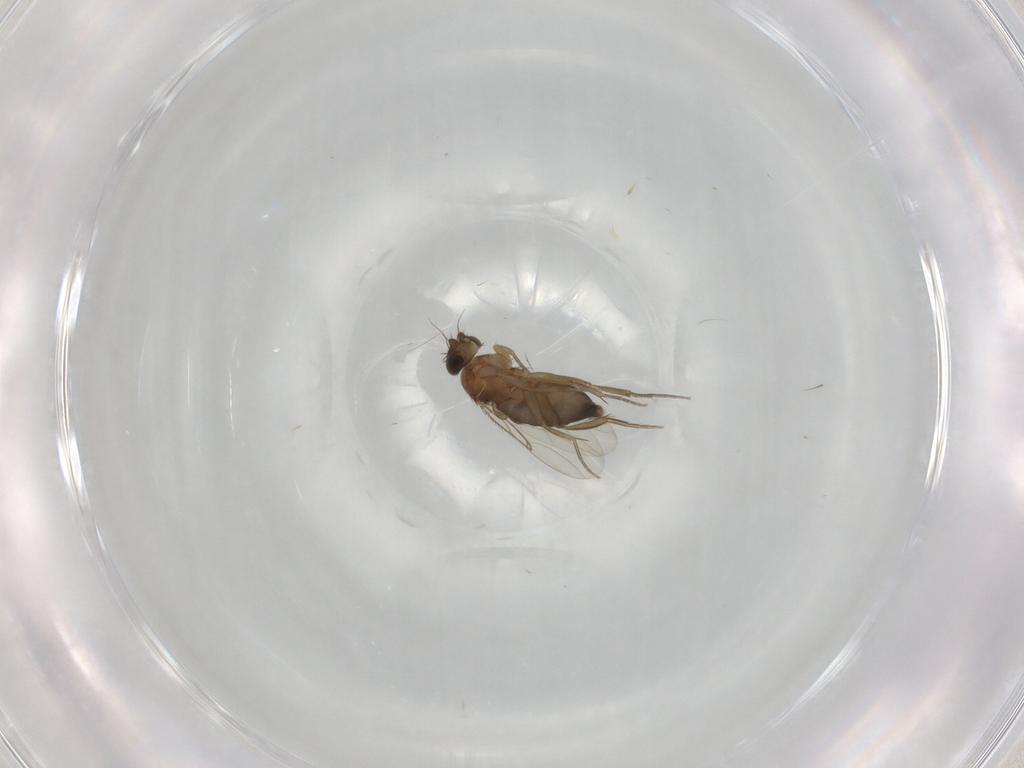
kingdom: Animalia
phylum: Arthropoda
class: Insecta
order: Diptera
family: Phoridae
